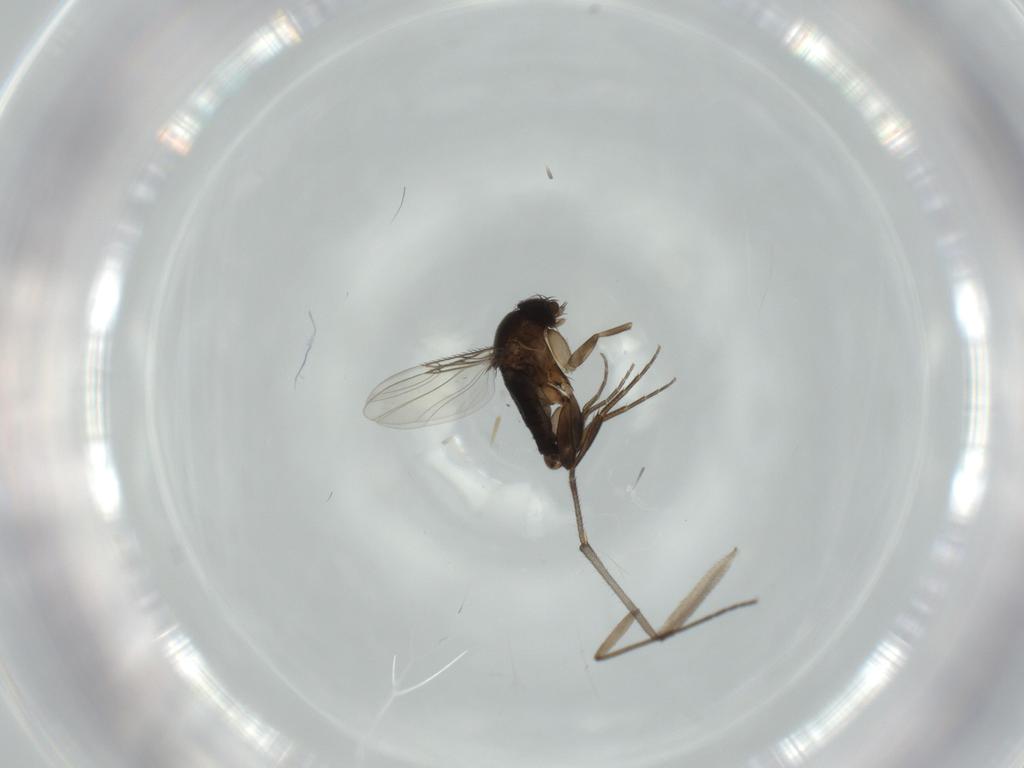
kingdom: Animalia
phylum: Arthropoda
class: Insecta
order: Diptera
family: Phoridae
